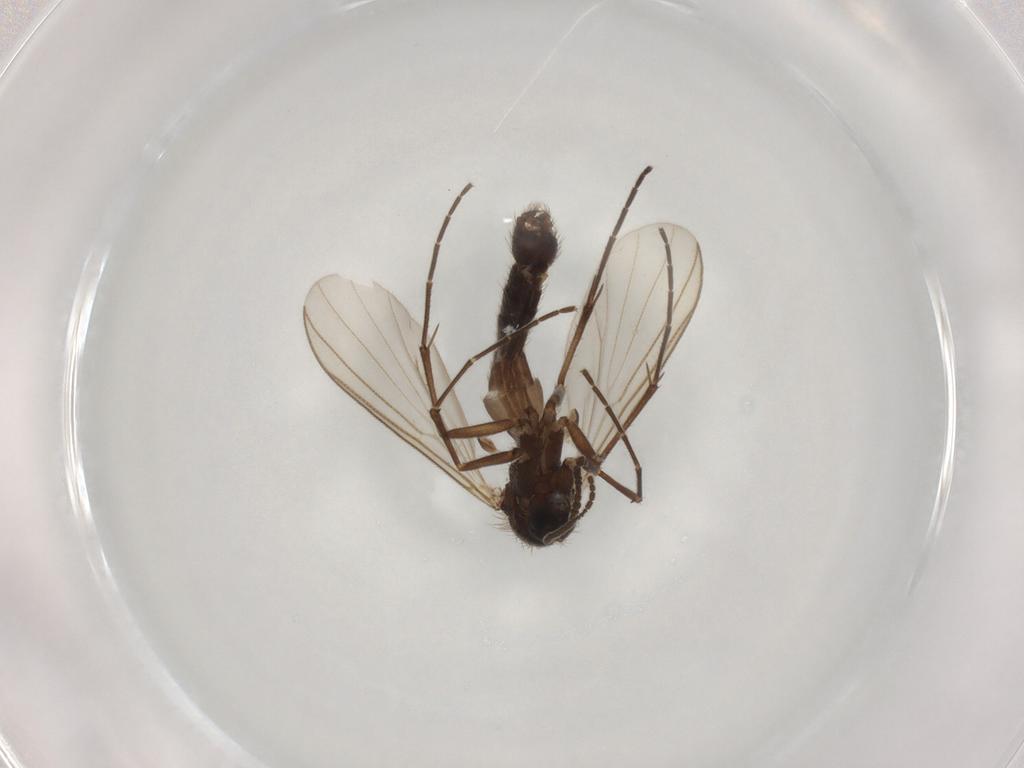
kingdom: Animalia
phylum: Arthropoda
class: Insecta
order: Diptera
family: Mycetophilidae
